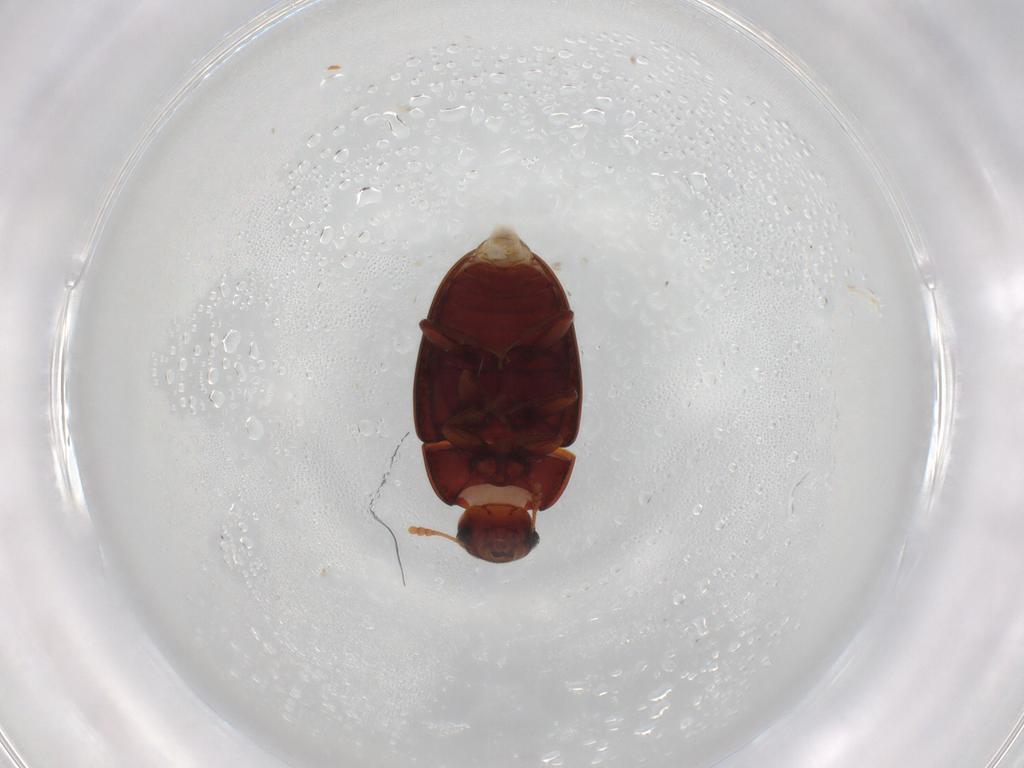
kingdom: Animalia
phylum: Arthropoda
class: Insecta
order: Coleoptera
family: Archeocrypticidae
